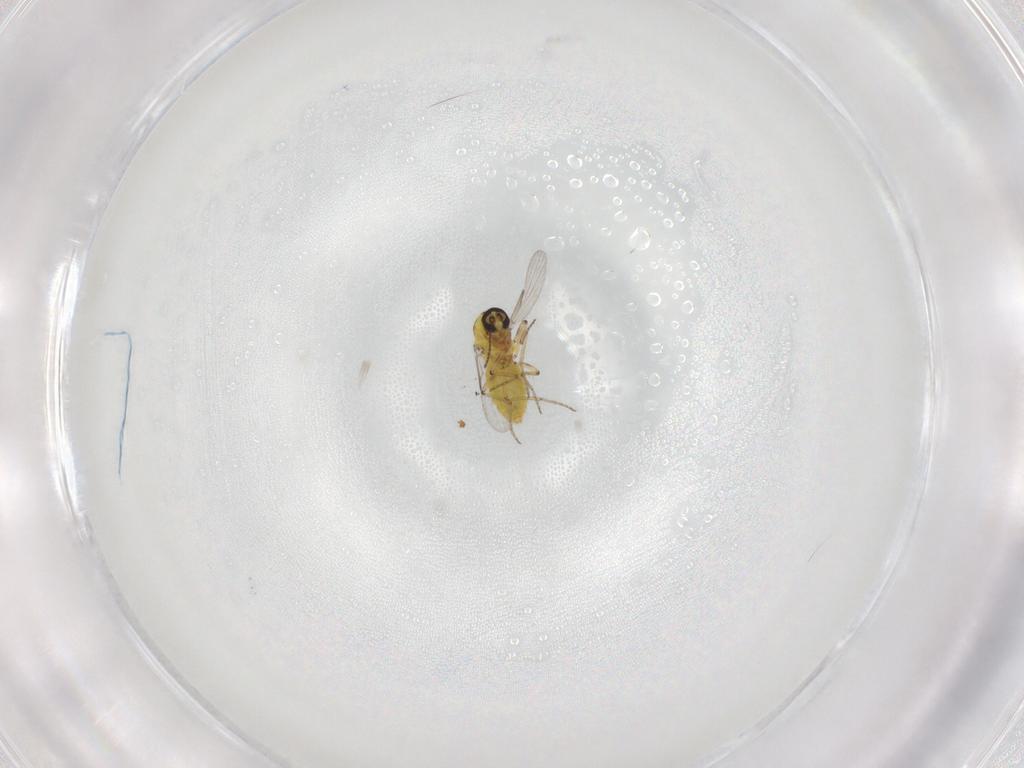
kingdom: Animalia
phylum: Arthropoda
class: Insecta
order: Diptera
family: Ceratopogonidae
